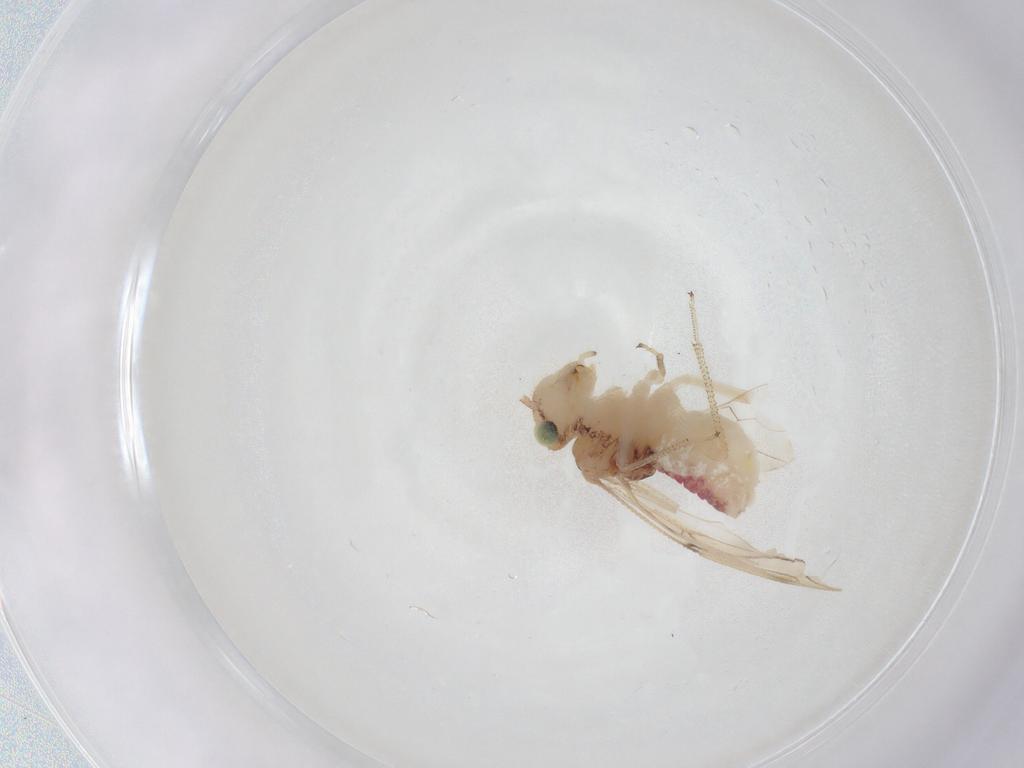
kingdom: Animalia
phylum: Arthropoda
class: Insecta
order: Psocodea
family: Pseudocaeciliidae
